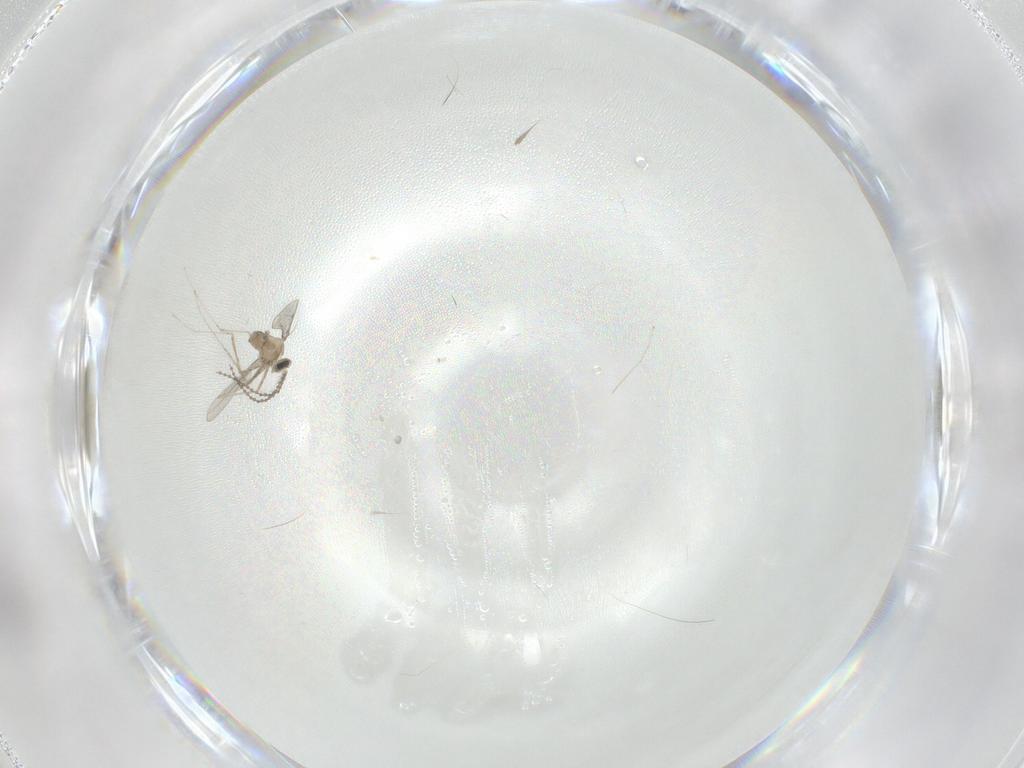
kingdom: Animalia
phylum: Arthropoda
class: Insecta
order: Diptera
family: Cecidomyiidae
